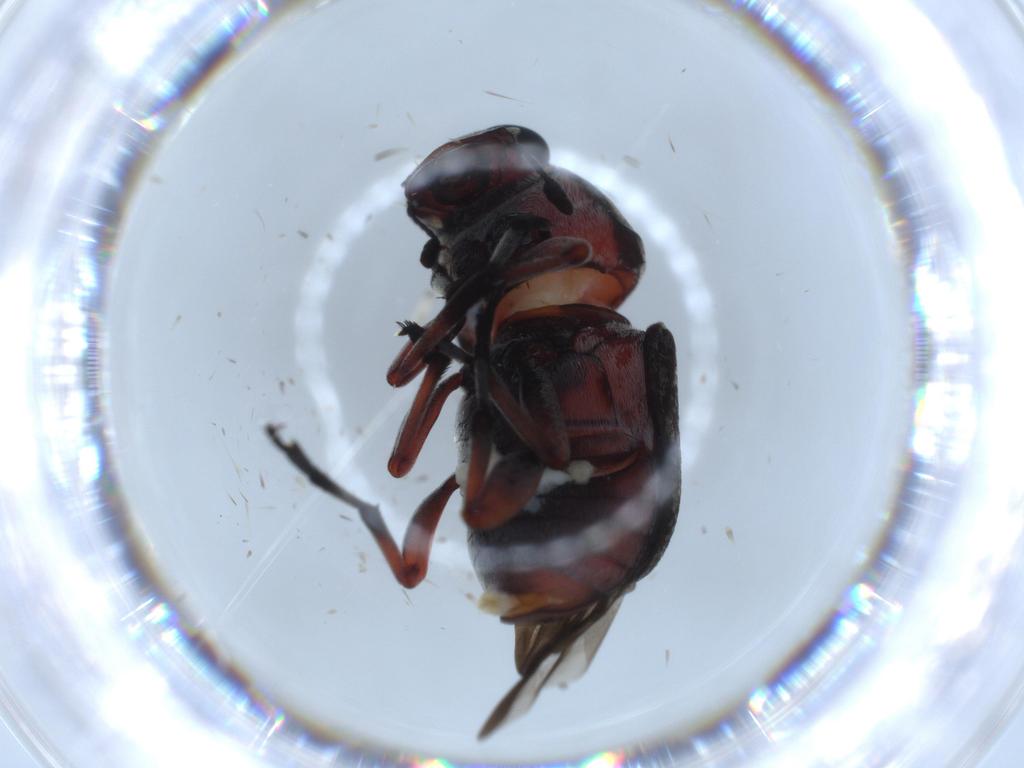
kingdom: Animalia
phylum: Arthropoda
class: Insecta
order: Coleoptera
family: Chrysomelidae
